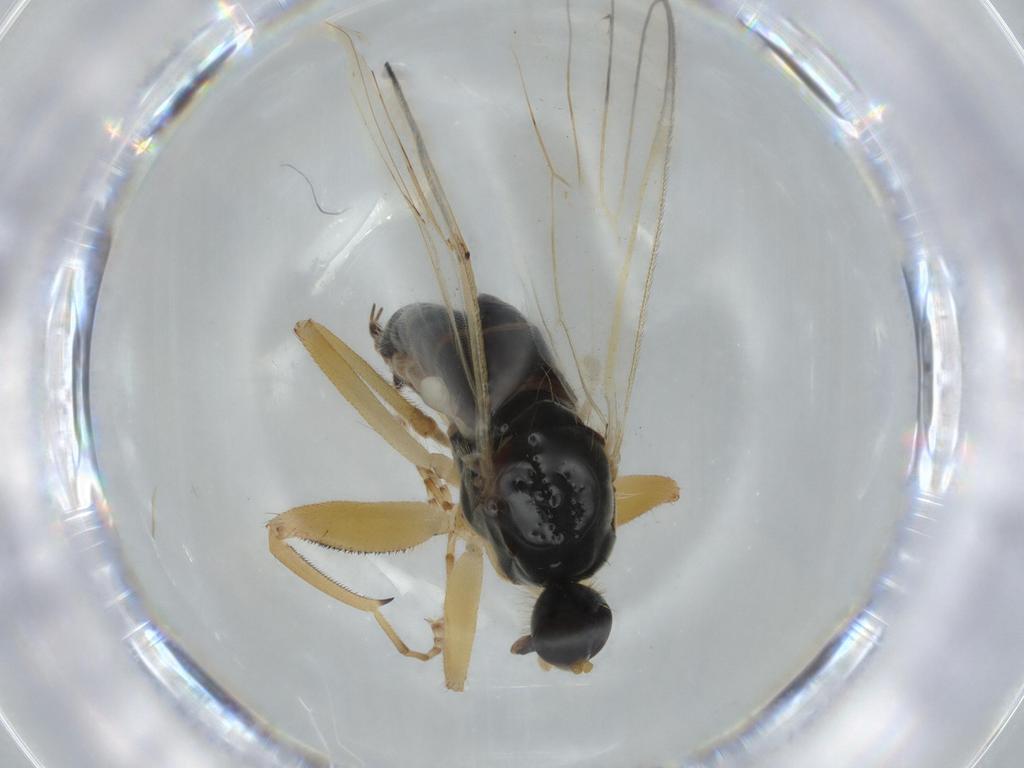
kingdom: Animalia
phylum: Arthropoda
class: Insecta
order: Diptera
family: Hybotidae
